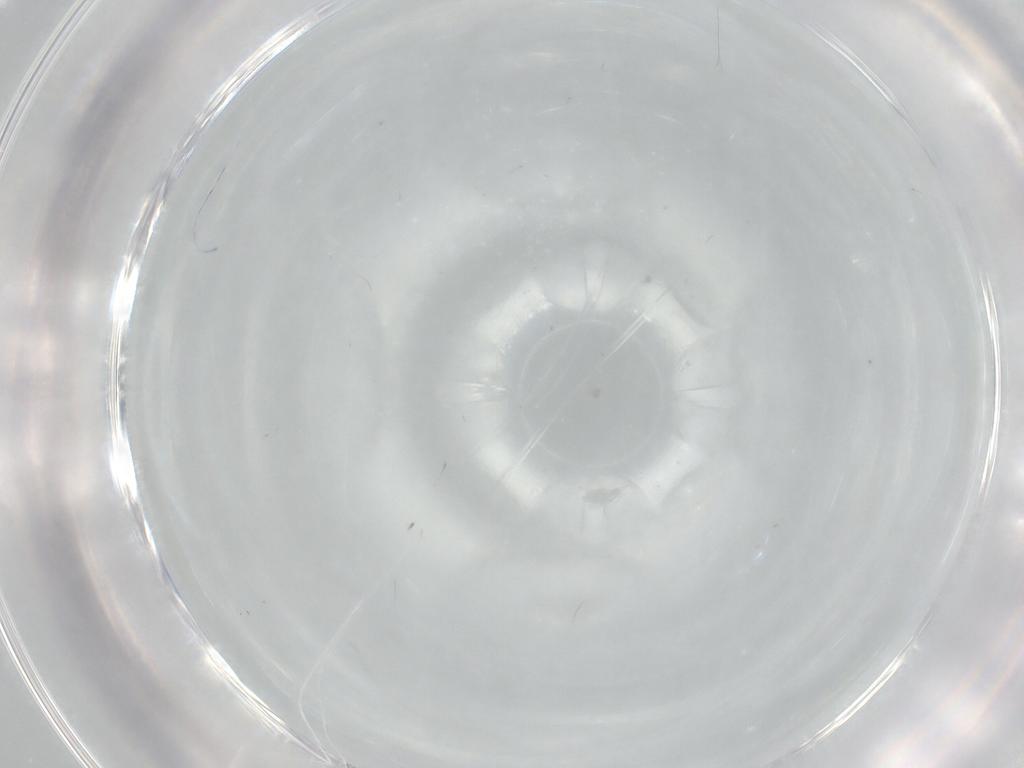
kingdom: Animalia
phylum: Arthropoda
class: Insecta
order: Diptera
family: Cecidomyiidae
